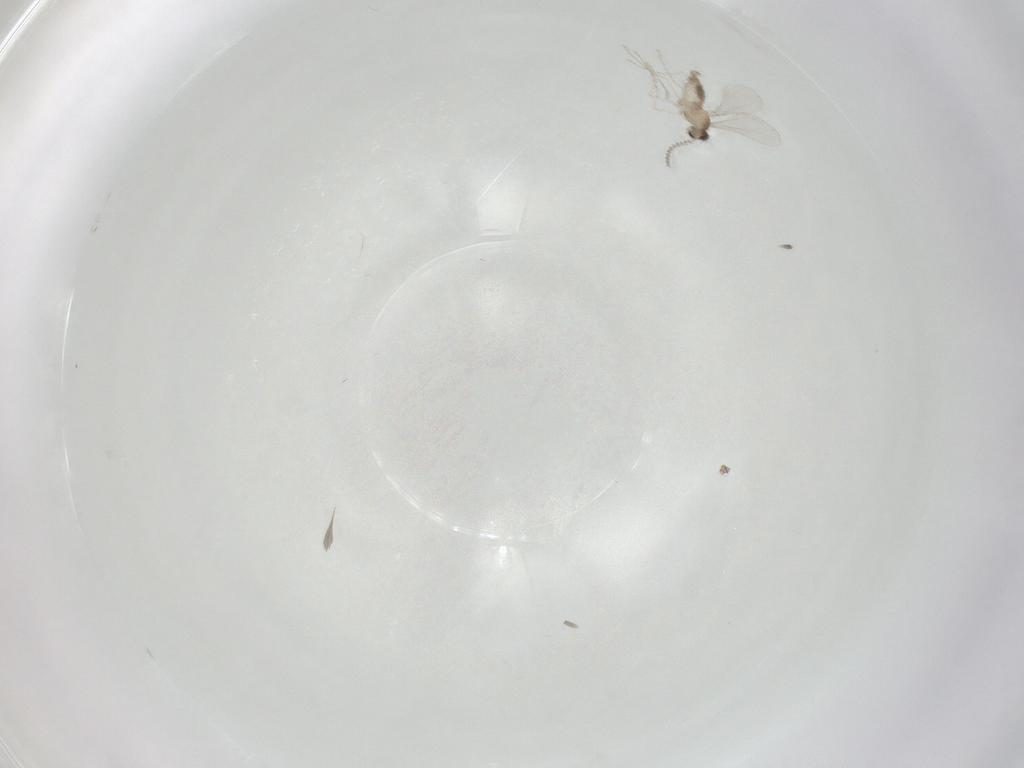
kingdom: Animalia
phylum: Arthropoda
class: Insecta
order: Diptera
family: Cecidomyiidae
